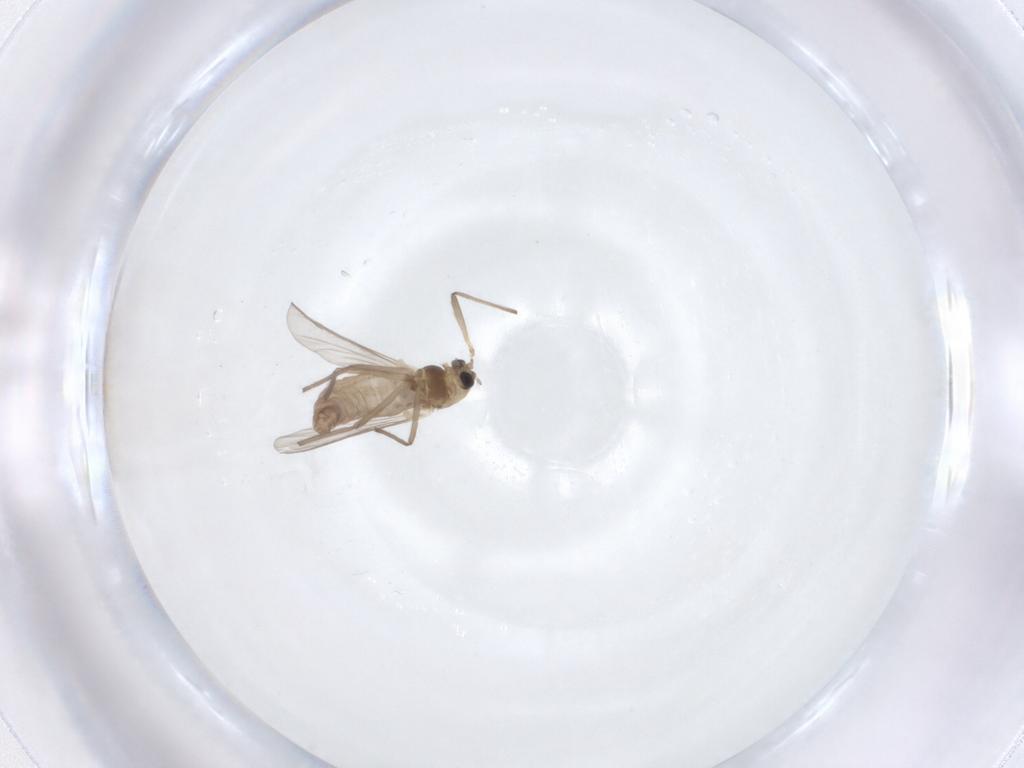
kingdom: Animalia
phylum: Arthropoda
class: Insecta
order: Diptera
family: Chironomidae
